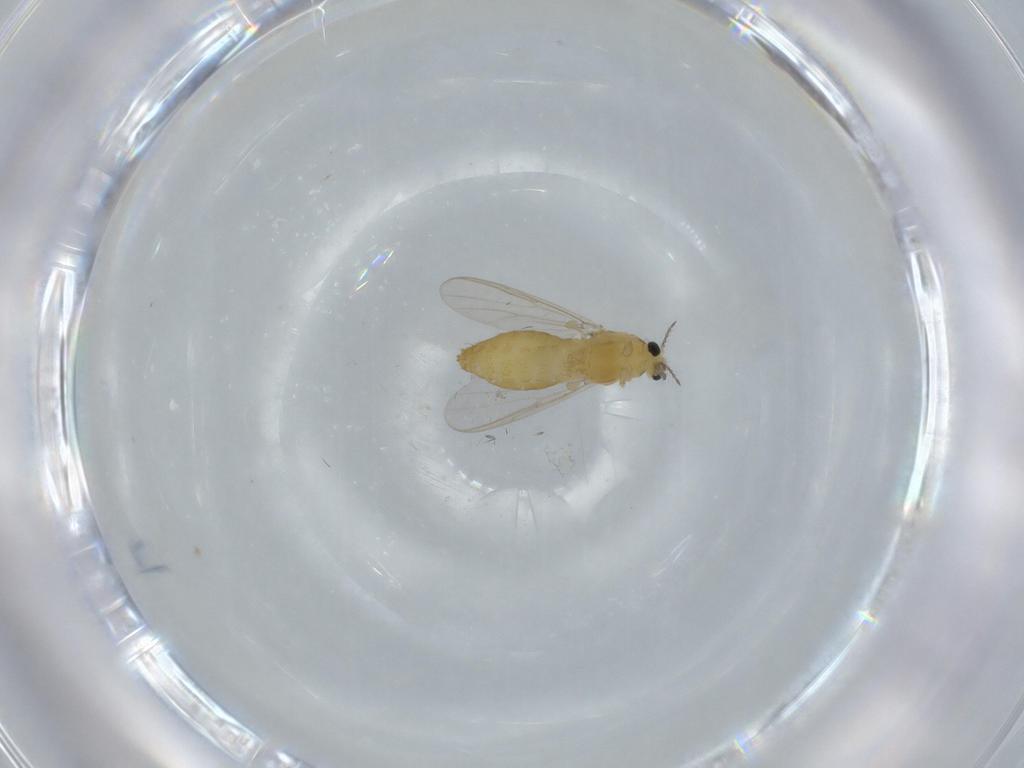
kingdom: Animalia
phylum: Arthropoda
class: Insecta
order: Diptera
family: Chironomidae
